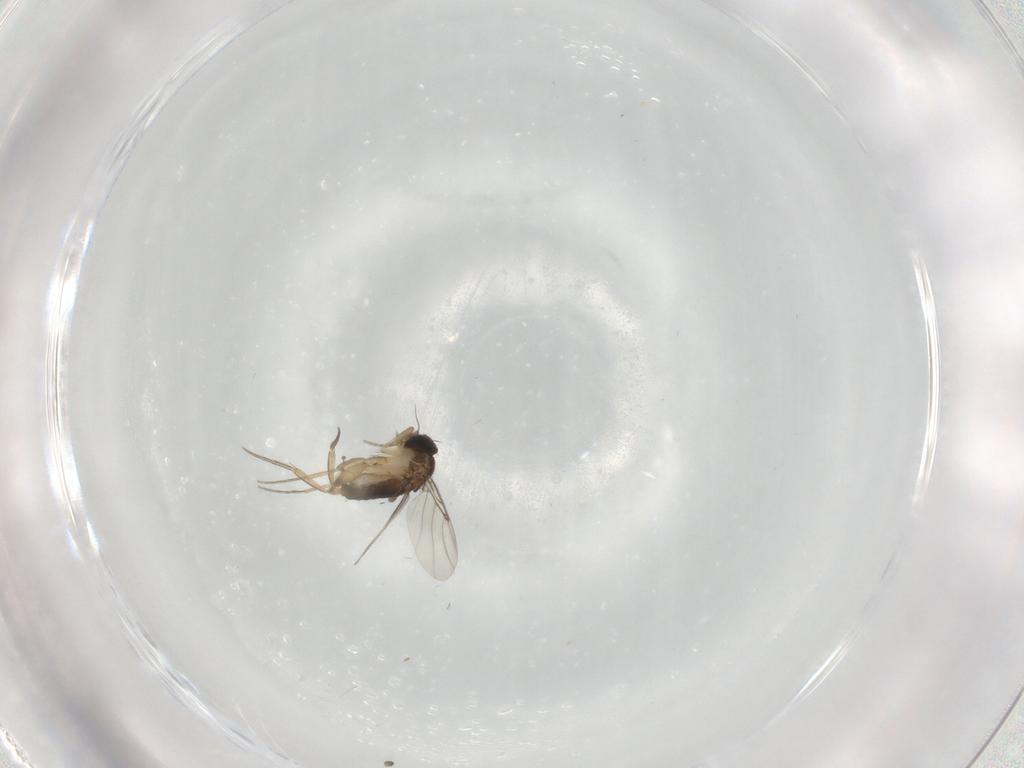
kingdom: Animalia
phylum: Arthropoda
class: Insecta
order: Diptera
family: Phoridae
